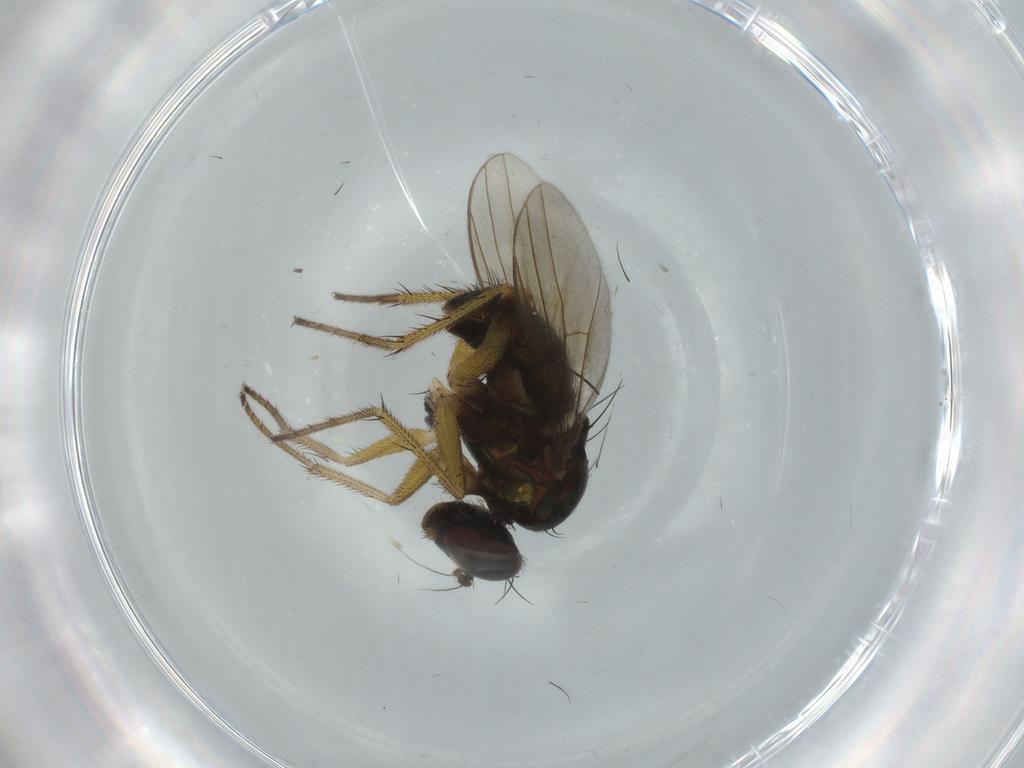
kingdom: Animalia
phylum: Arthropoda
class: Insecta
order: Diptera
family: Dolichopodidae
